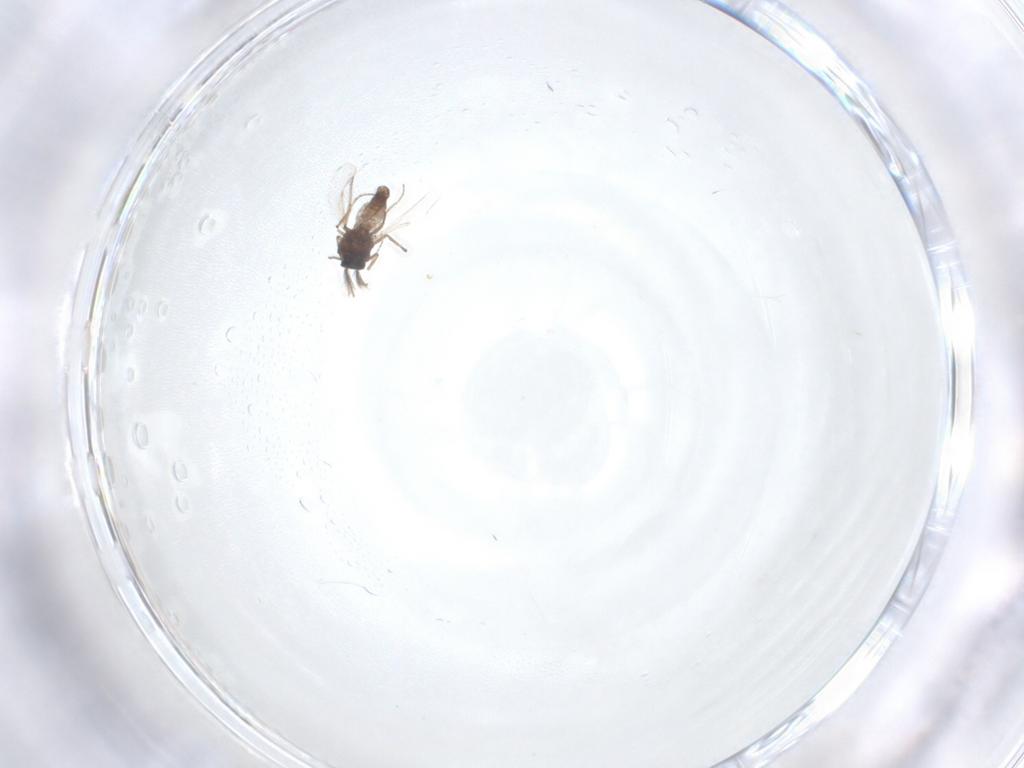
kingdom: Animalia
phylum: Arthropoda
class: Insecta
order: Diptera
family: Ceratopogonidae
